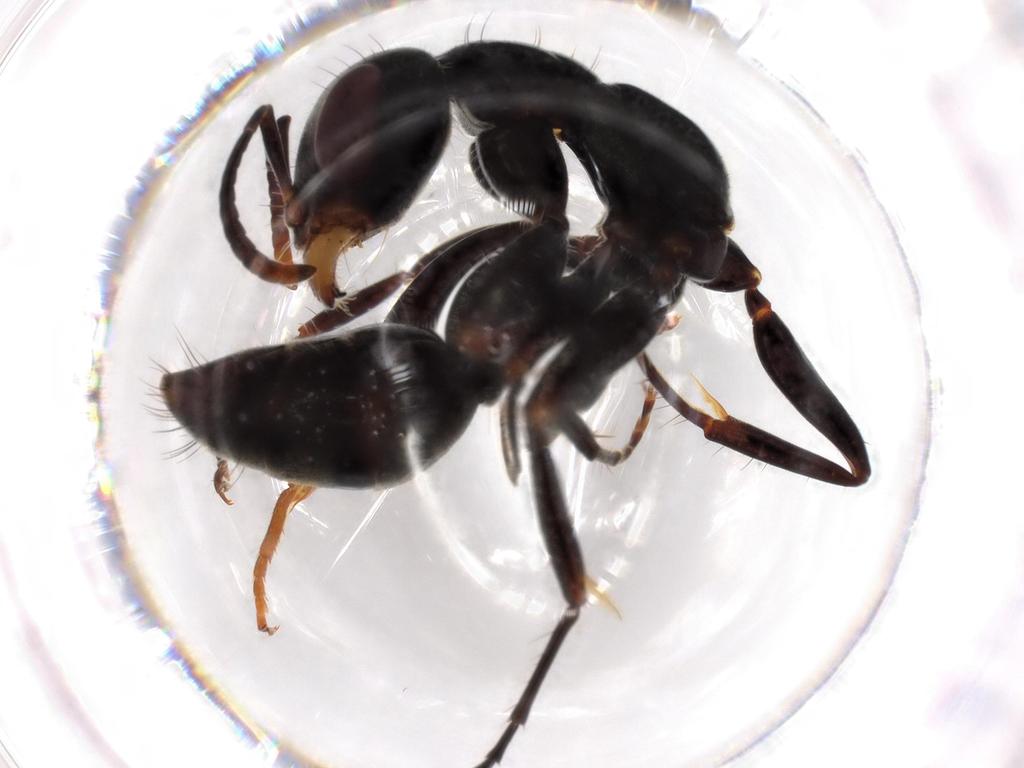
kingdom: Animalia
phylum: Arthropoda
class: Insecta
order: Hymenoptera
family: Formicidae
